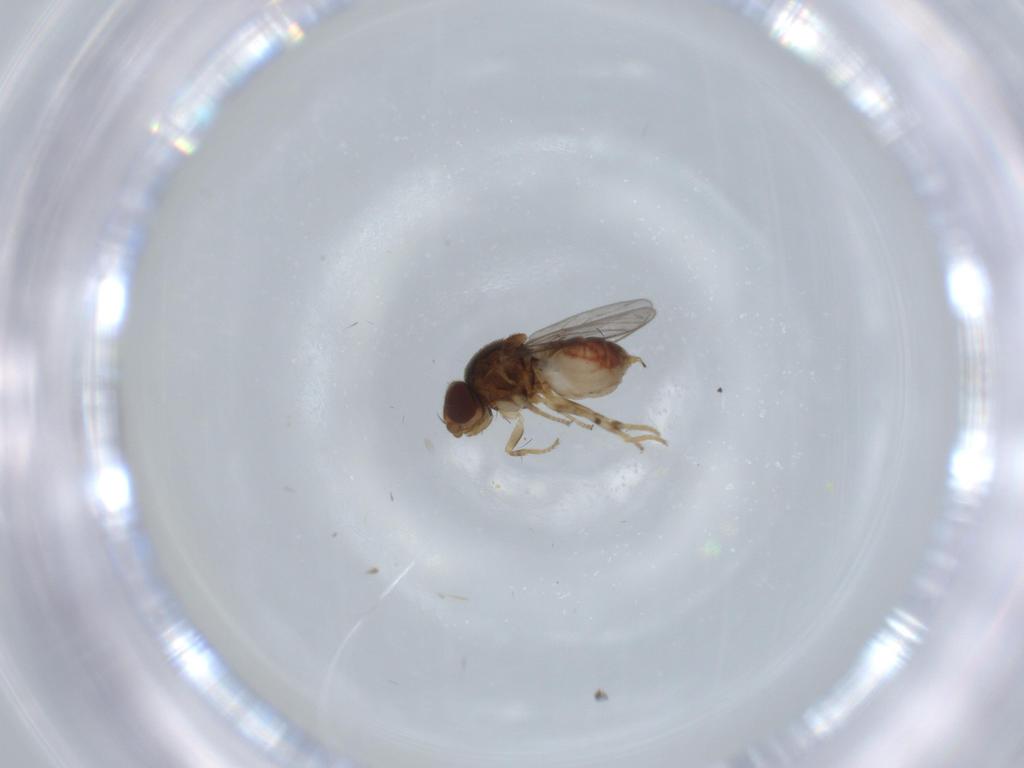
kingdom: Animalia
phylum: Arthropoda
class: Insecta
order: Diptera
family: Chloropidae
